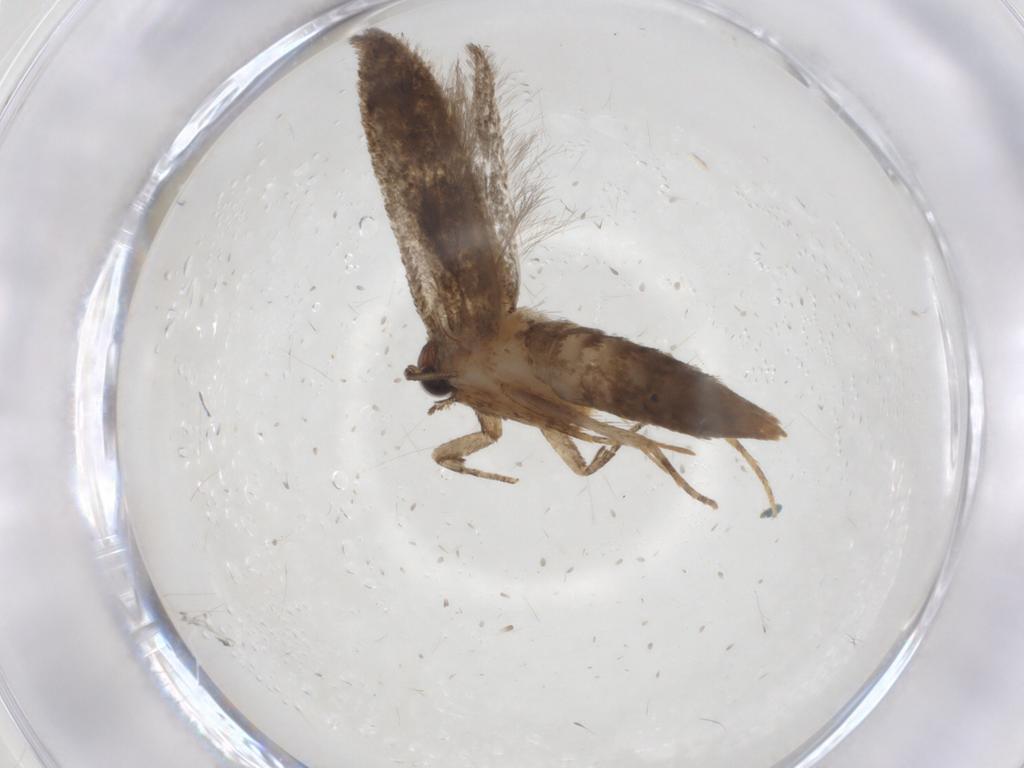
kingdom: Animalia
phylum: Arthropoda
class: Insecta
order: Lepidoptera
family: Tineidae
